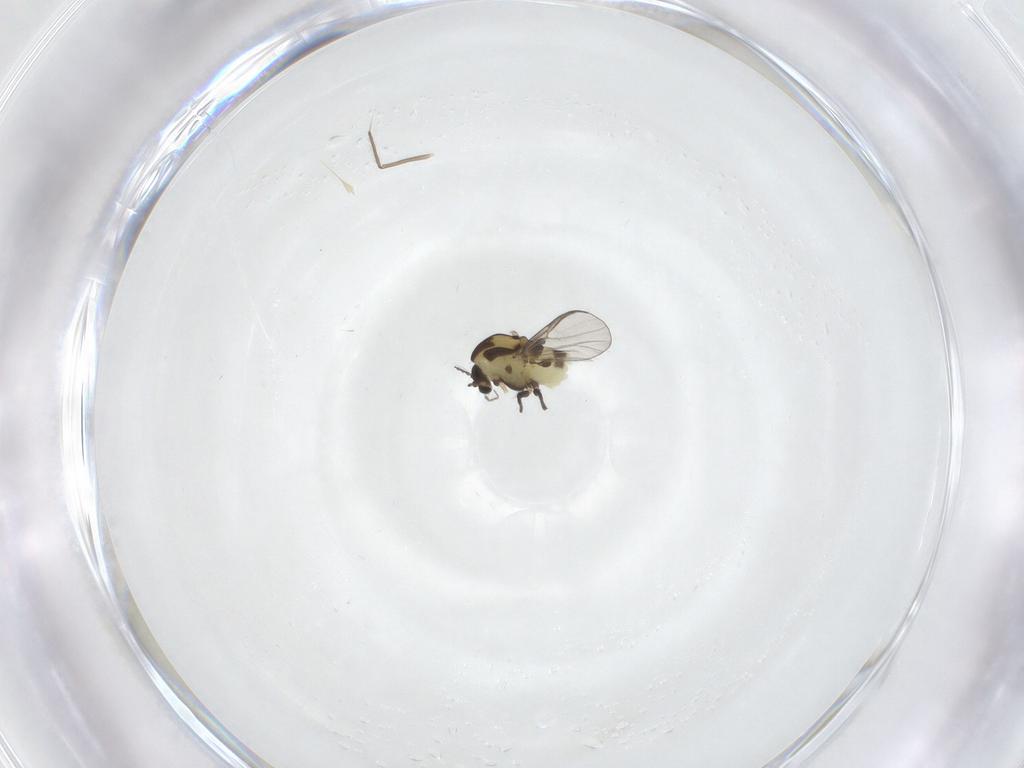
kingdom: Animalia
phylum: Arthropoda
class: Insecta
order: Diptera
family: Chironomidae
